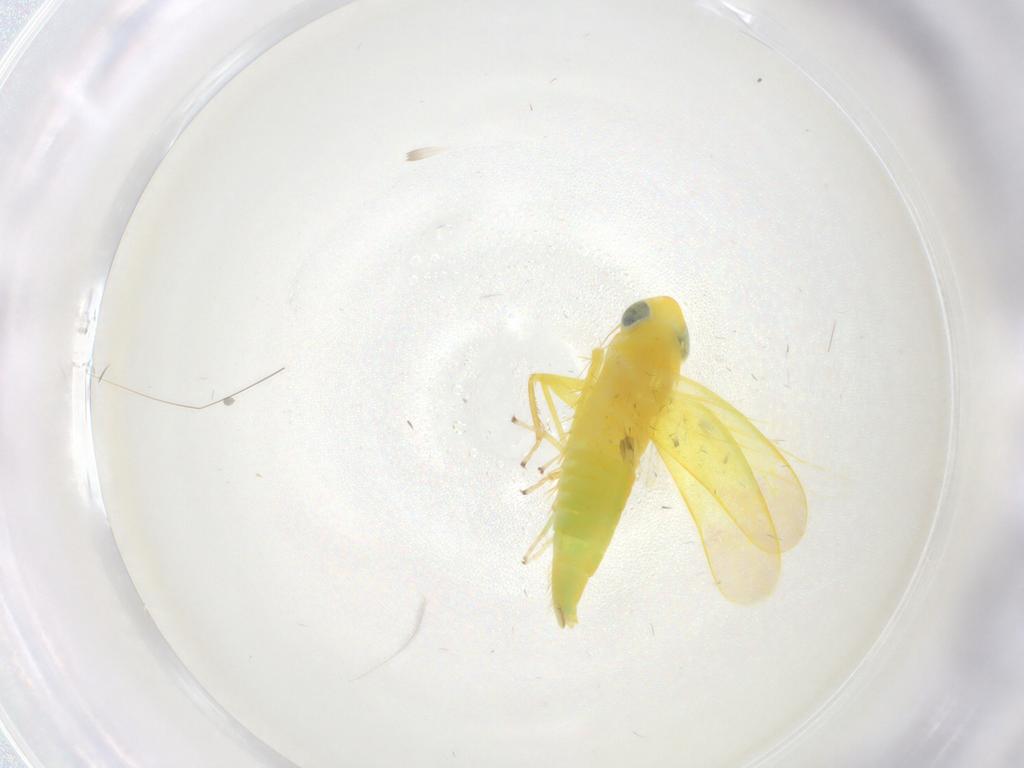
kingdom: Animalia
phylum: Arthropoda
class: Insecta
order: Hemiptera
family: Cicadellidae
